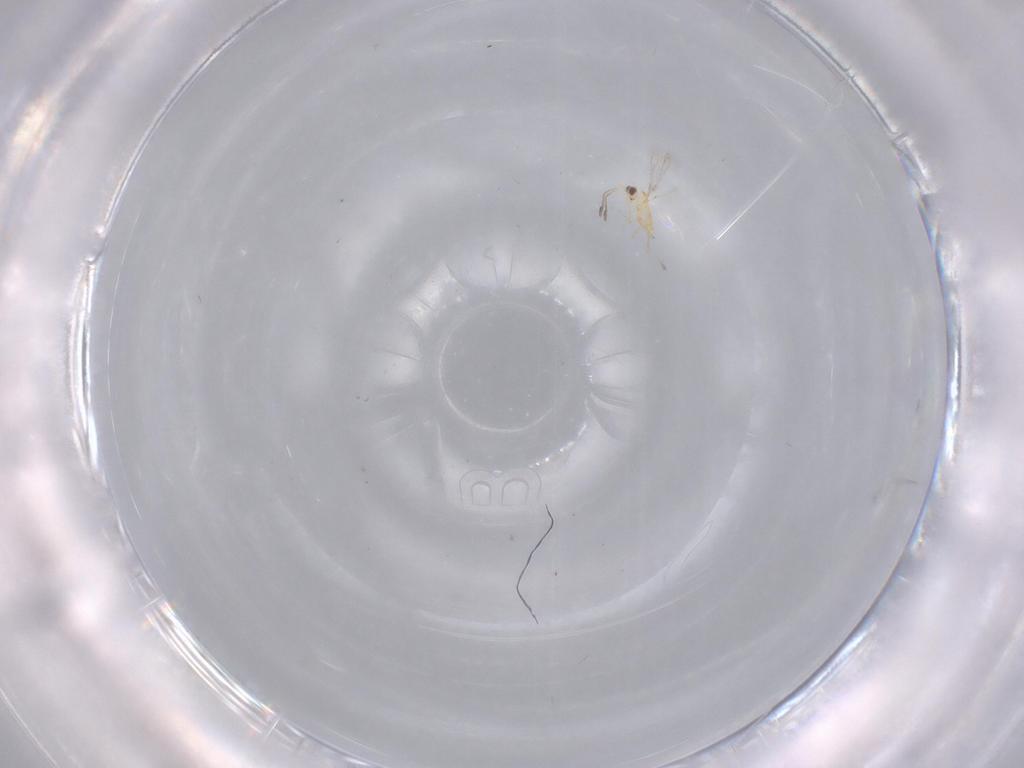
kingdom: Animalia
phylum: Arthropoda
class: Insecta
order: Hymenoptera
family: Mymaridae
